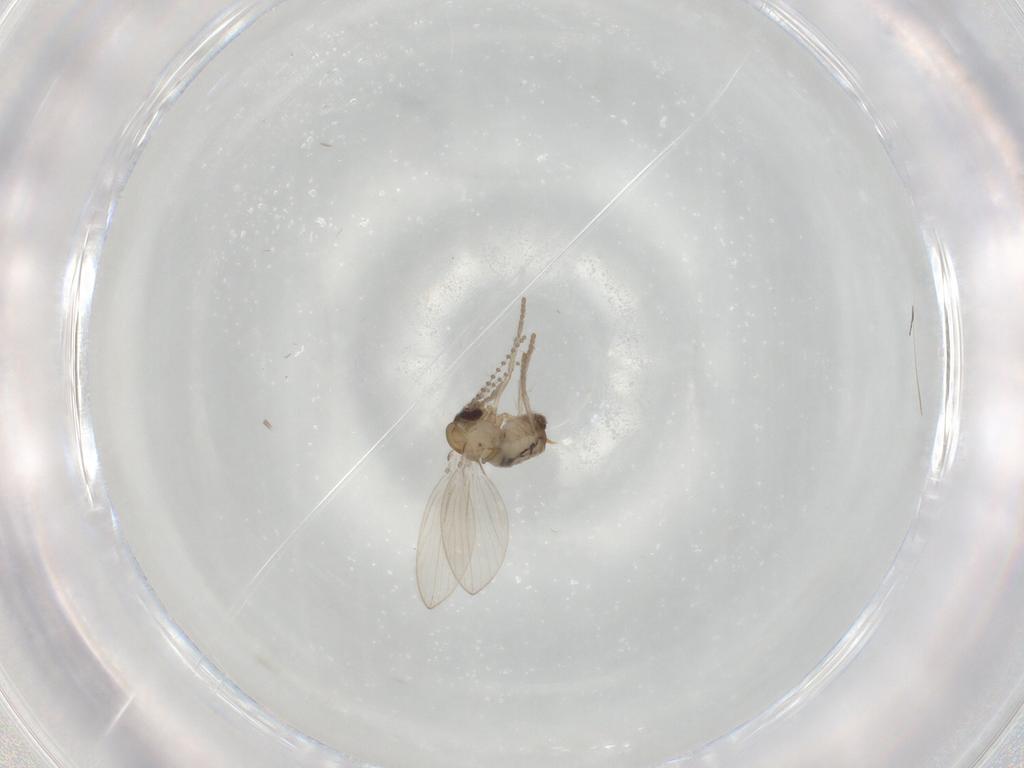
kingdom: Animalia
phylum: Arthropoda
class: Insecta
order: Diptera
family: Psychodidae
